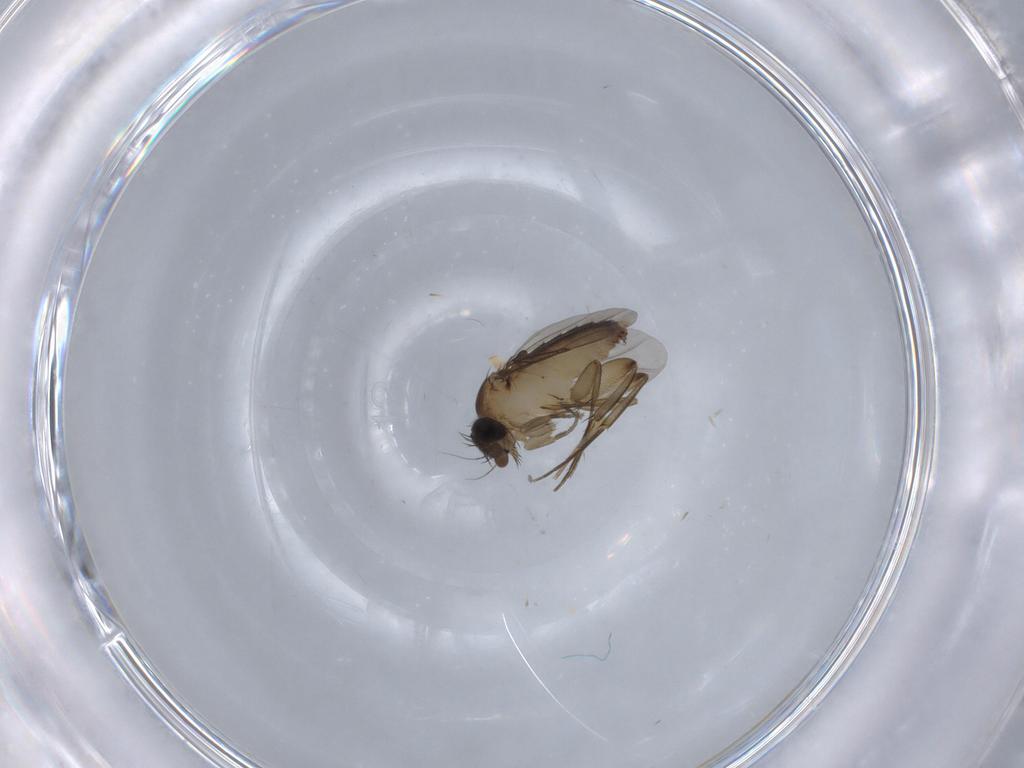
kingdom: Animalia
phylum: Arthropoda
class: Insecta
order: Diptera
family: Phoridae
